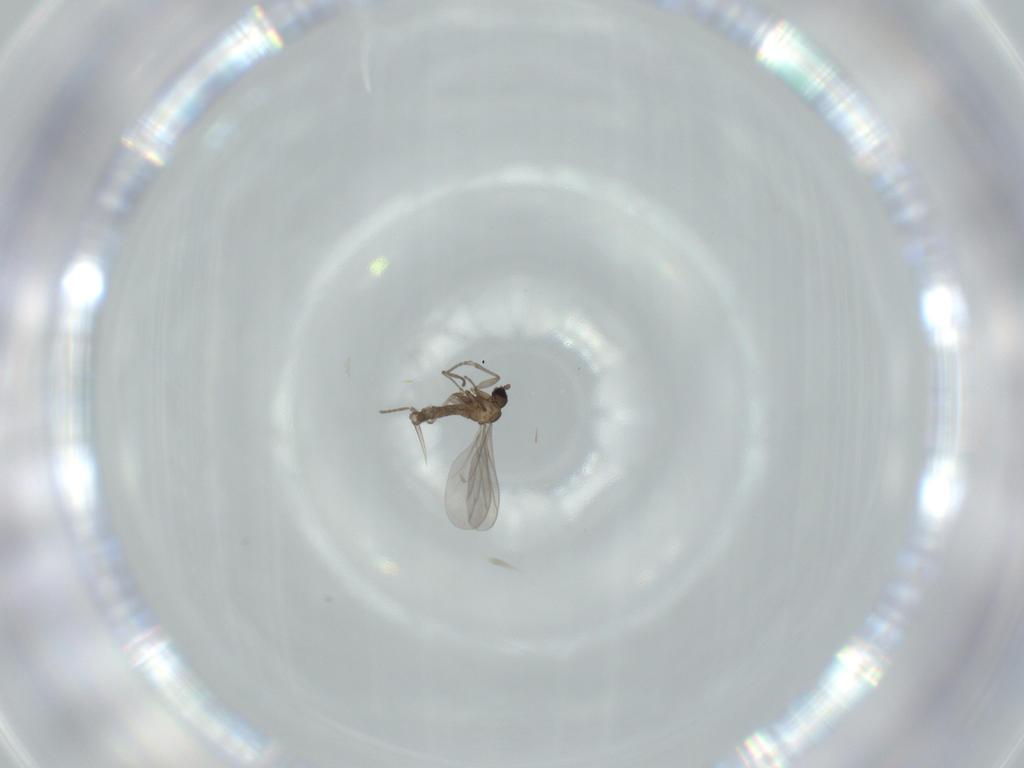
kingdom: Animalia
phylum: Arthropoda
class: Insecta
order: Diptera
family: Sciaridae
